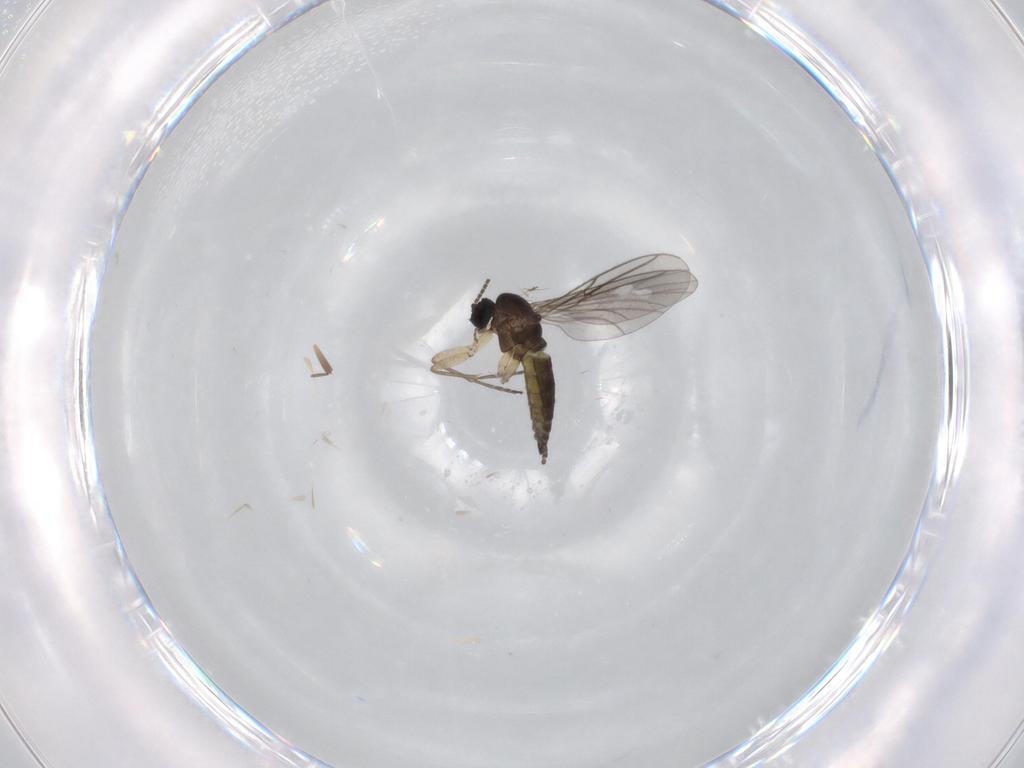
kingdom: Animalia
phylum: Arthropoda
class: Insecta
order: Diptera
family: Sciaridae
